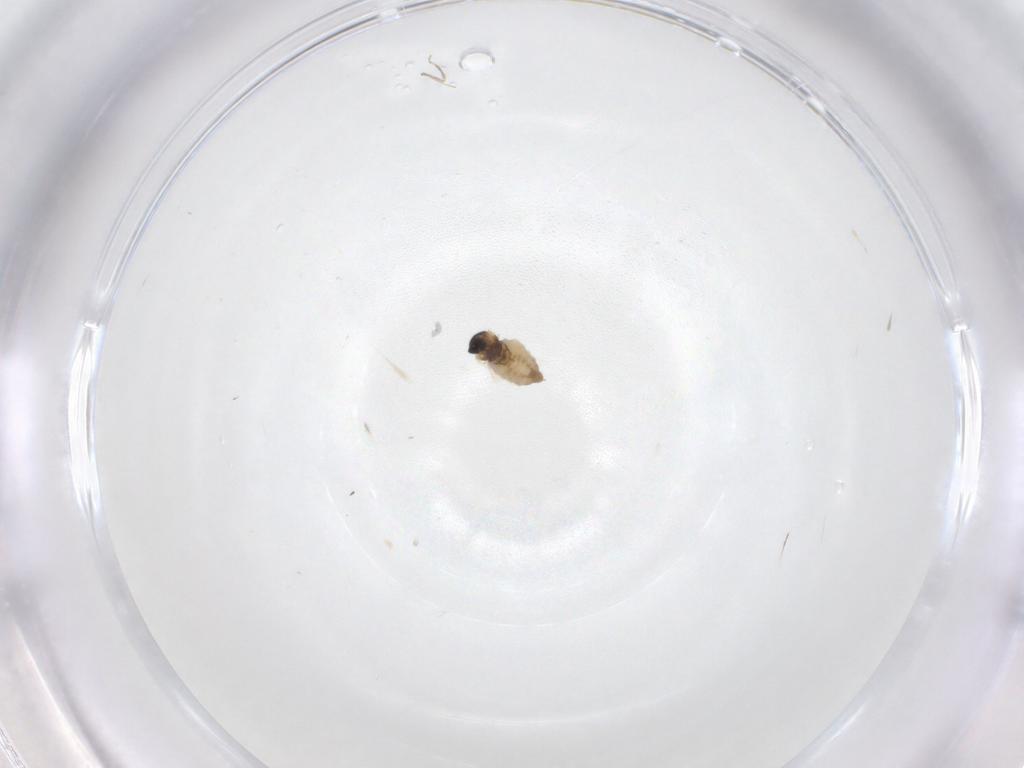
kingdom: Animalia
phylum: Arthropoda
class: Insecta
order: Diptera
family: Cecidomyiidae
